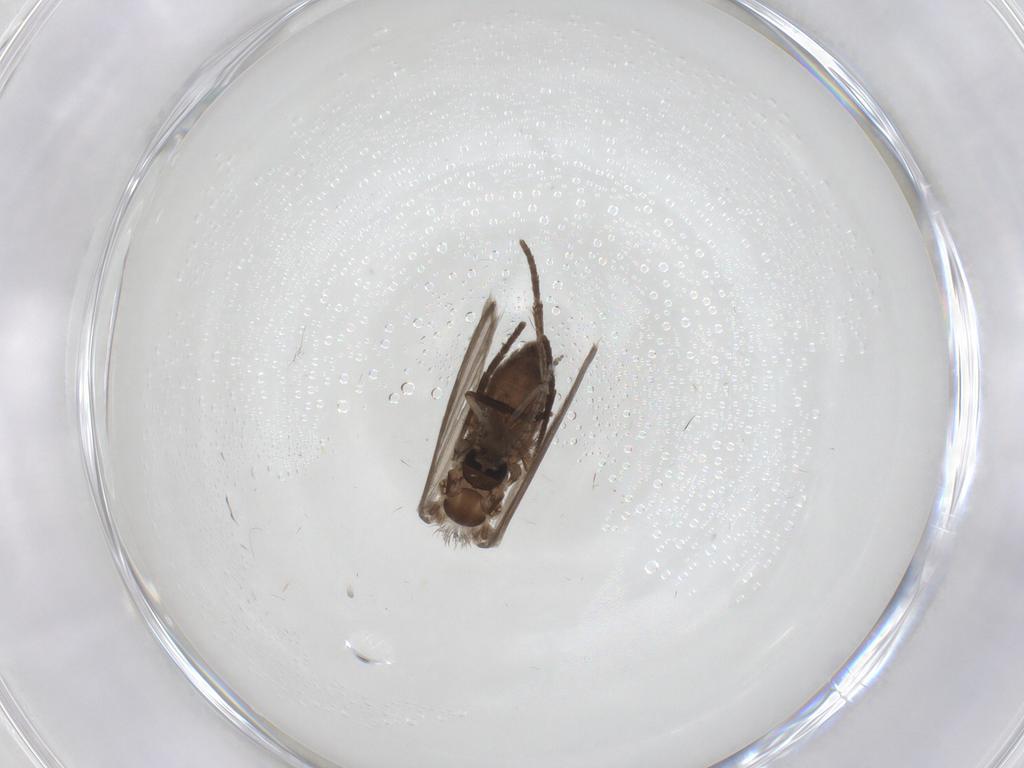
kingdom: Animalia
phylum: Arthropoda
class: Insecta
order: Diptera
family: Psychodidae
